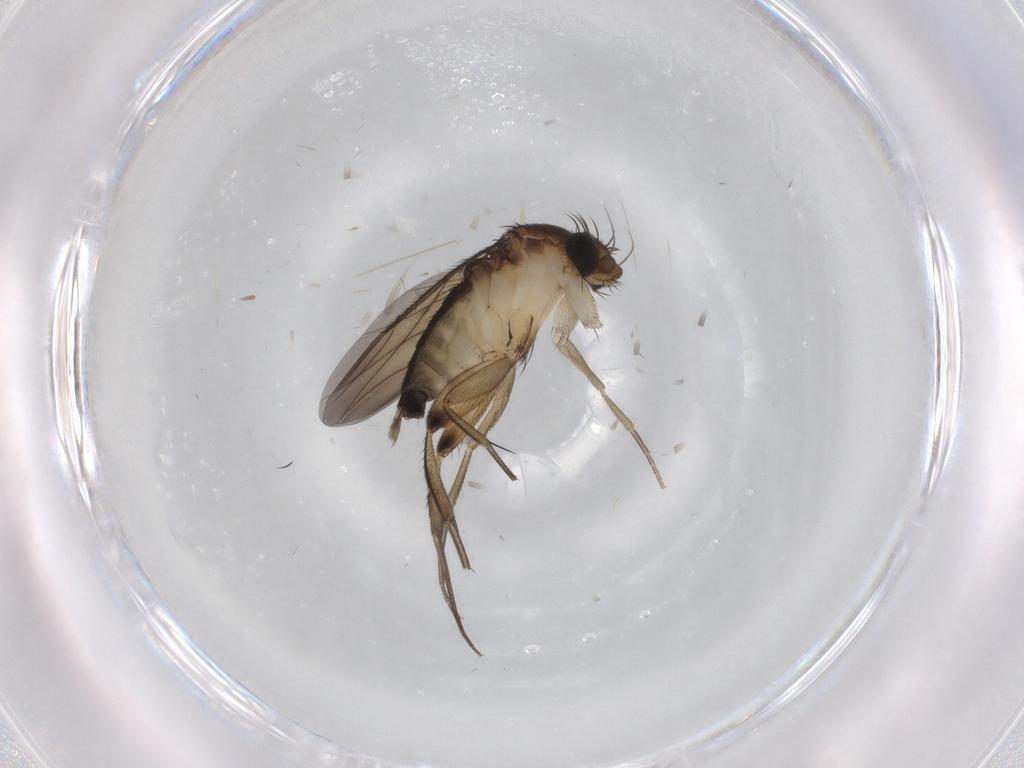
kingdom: Animalia
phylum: Arthropoda
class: Insecta
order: Diptera
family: Phoridae
